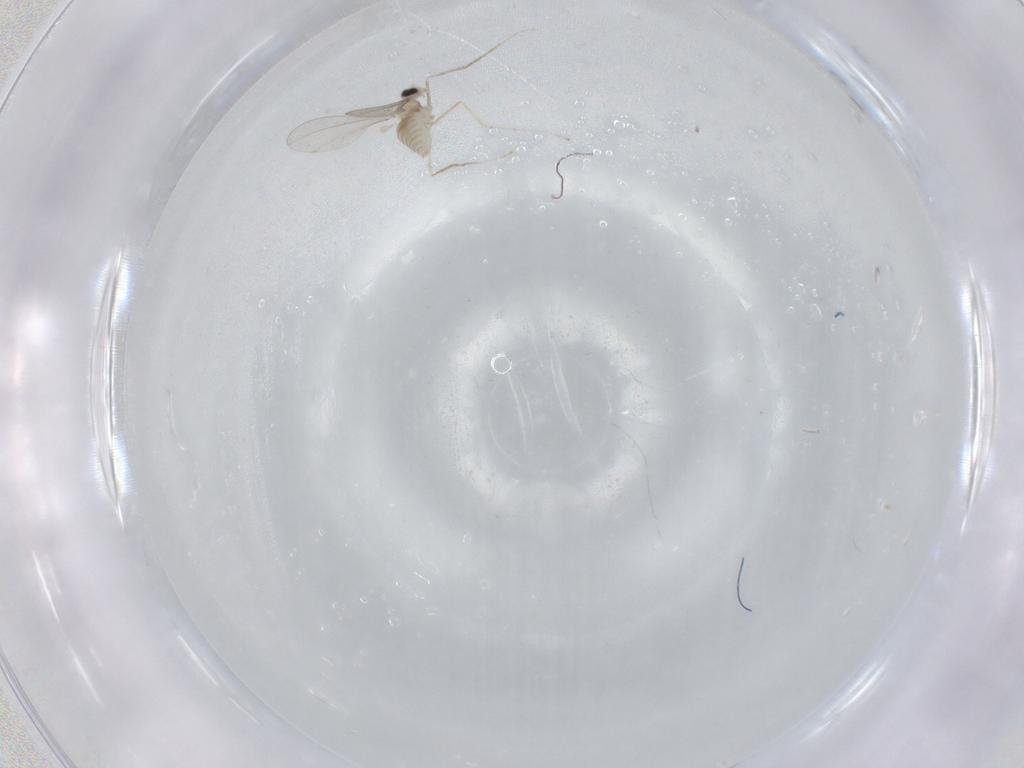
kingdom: Animalia
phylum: Arthropoda
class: Insecta
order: Diptera
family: Cecidomyiidae
